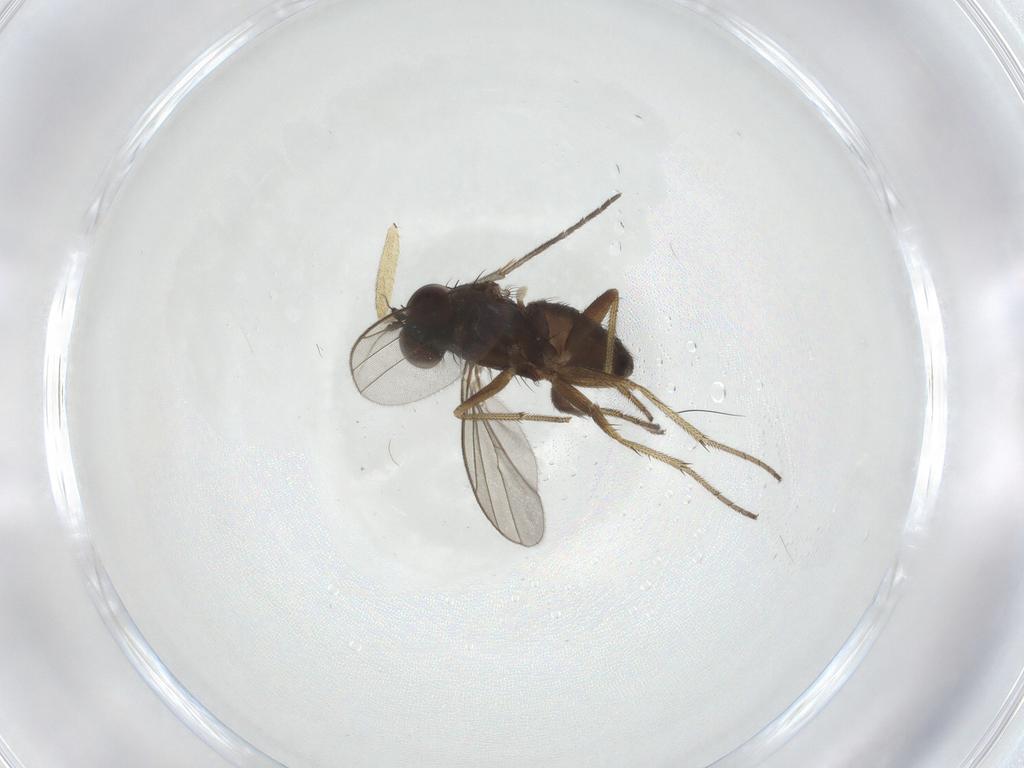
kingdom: Animalia
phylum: Arthropoda
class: Insecta
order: Diptera
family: Sciaridae
